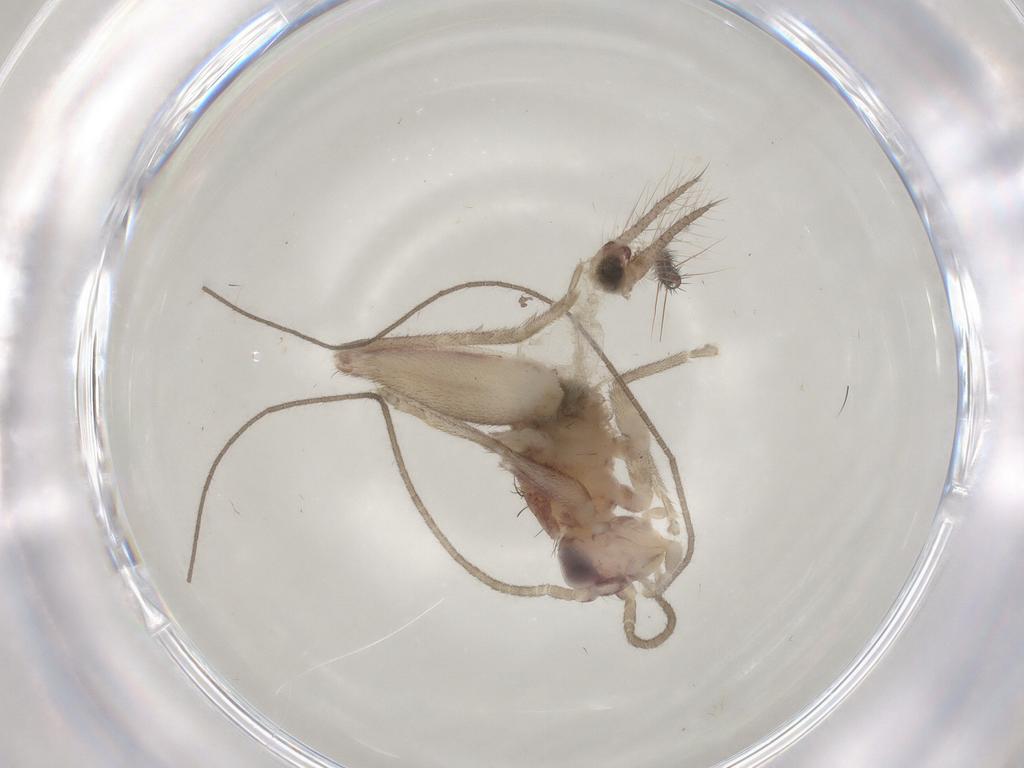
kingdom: Animalia
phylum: Arthropoda
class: Insecta
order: Orthoptera
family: Trigonidiidae
